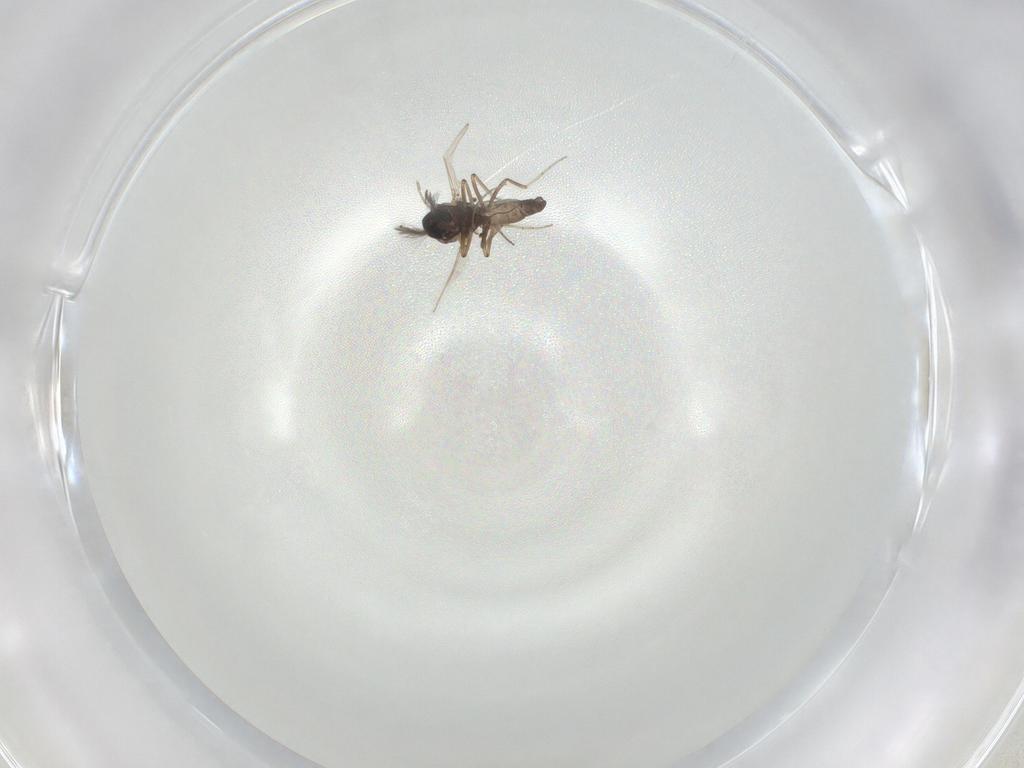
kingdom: Animalia
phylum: Arthropoda
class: Insecta
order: Diptera
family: Ceratopogonidae
